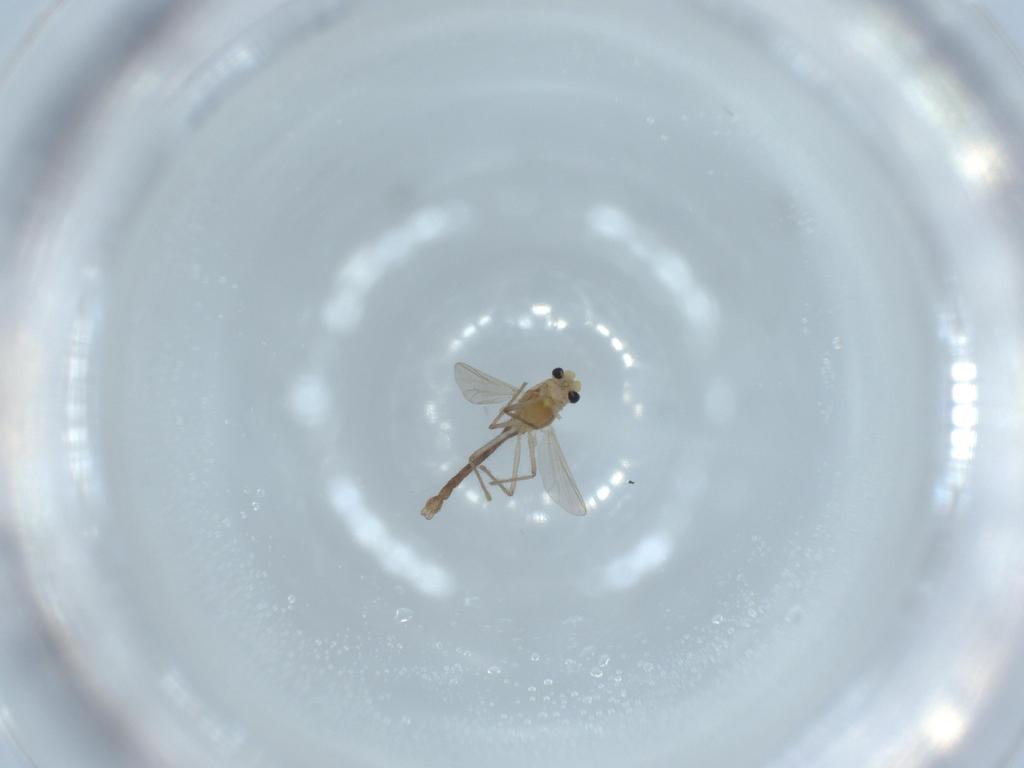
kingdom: Animalia
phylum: Arthropoda
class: Insecta
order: Diptera
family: Chironomidae
